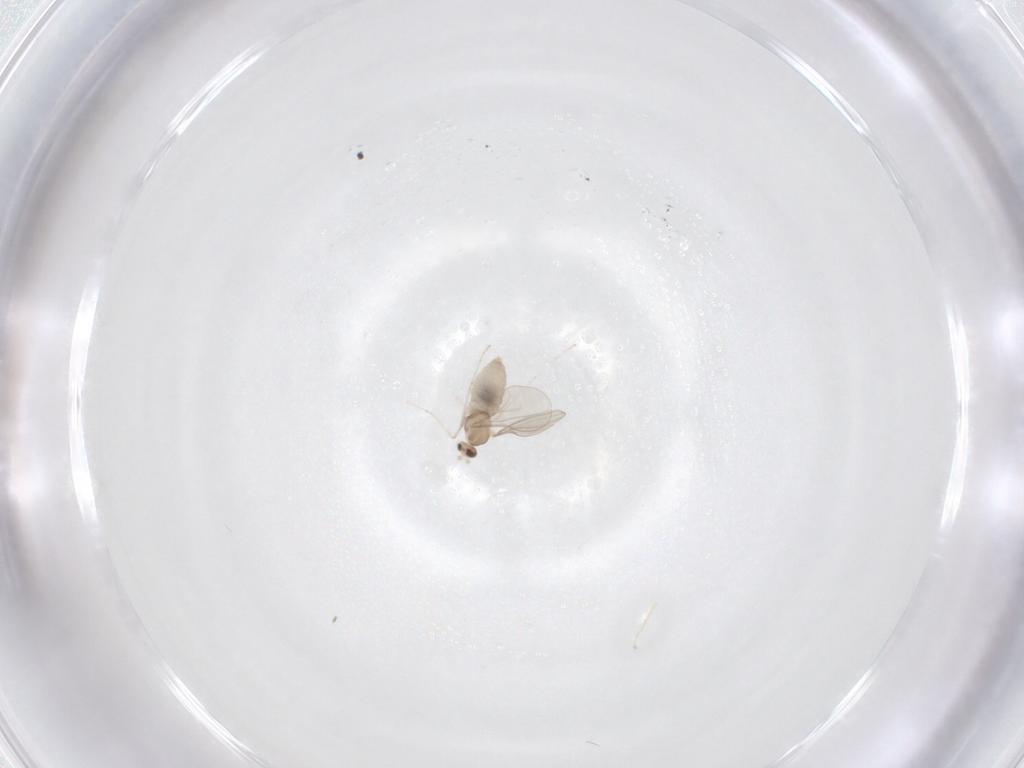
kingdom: Animalia
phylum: Arthropoda
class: Insecta
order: Diptera
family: Cecidomyiidae
